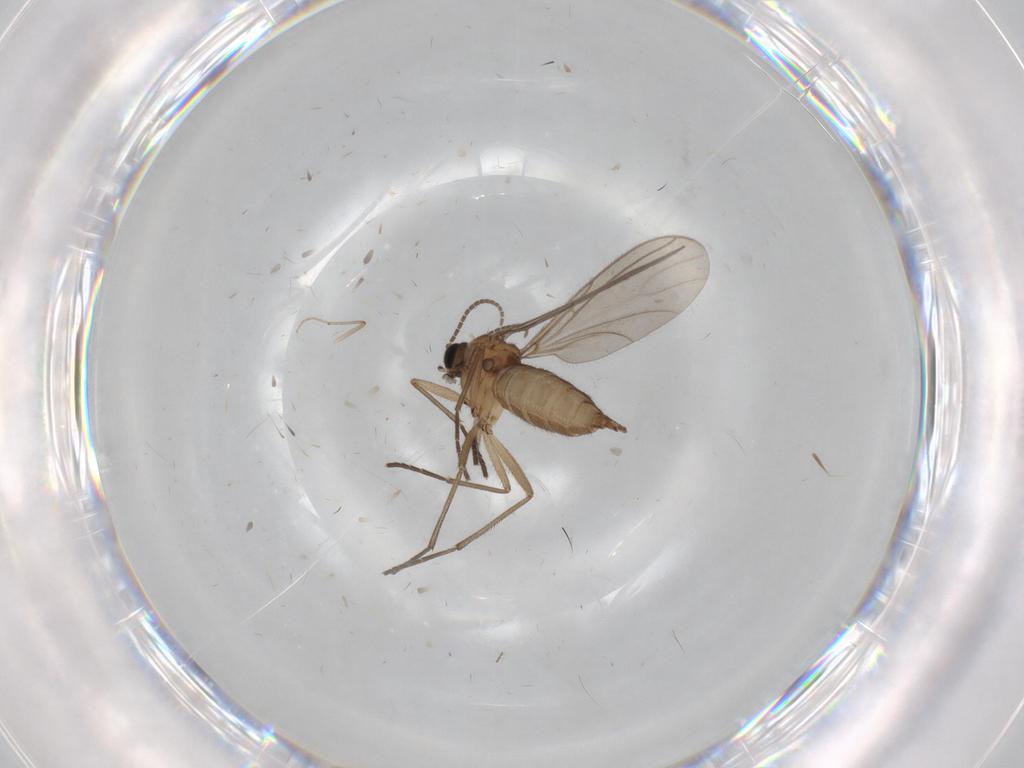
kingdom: Animalia
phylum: Arthropoda
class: Insecta
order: Diptera
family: Sciaridae
